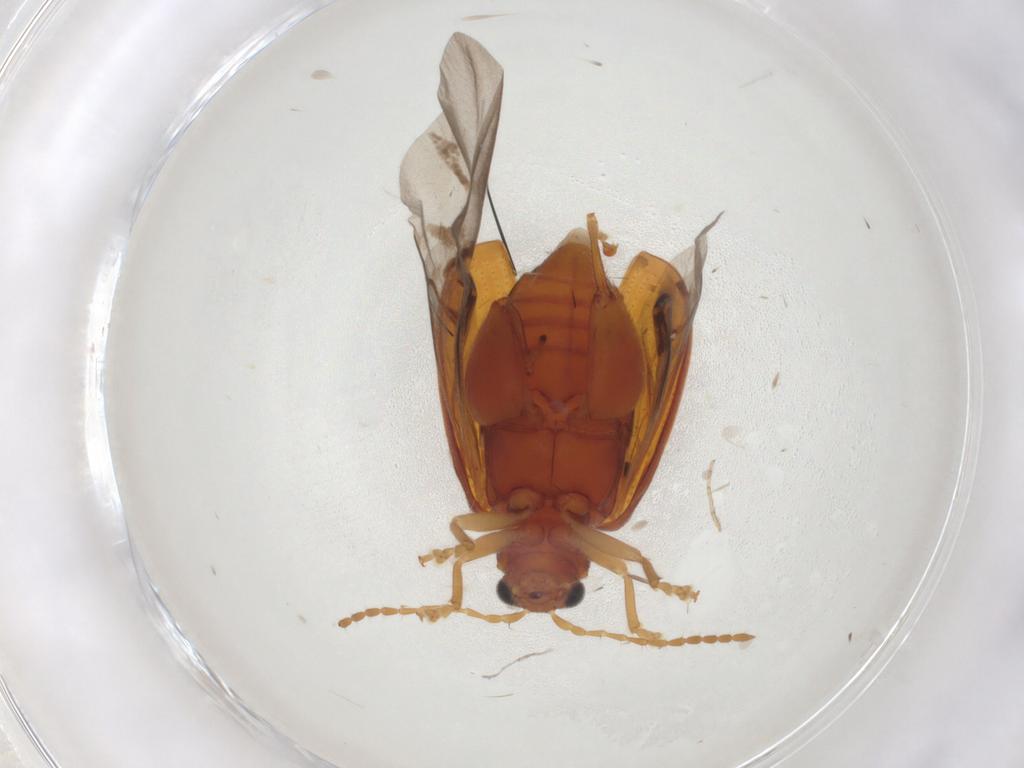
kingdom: Animalia
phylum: Arthropoda
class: Insecta
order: Coleoptera
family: Chrysomelidae
